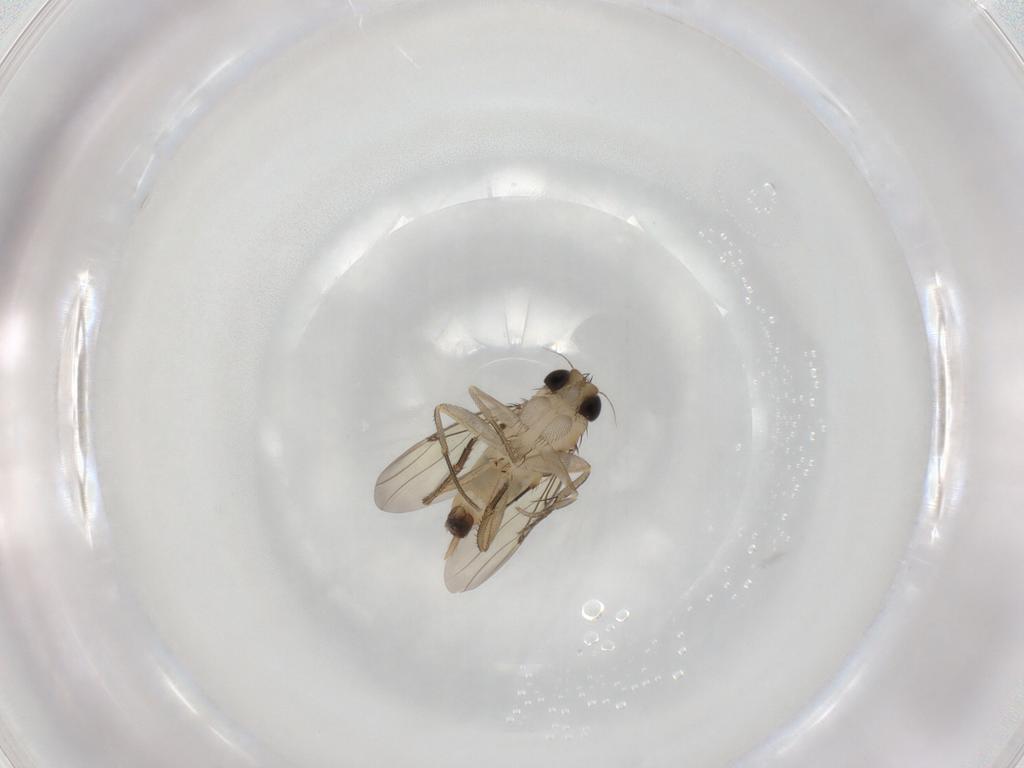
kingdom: Animalia
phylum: Arthropoda
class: Insecta
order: Diptera
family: Phoridae
